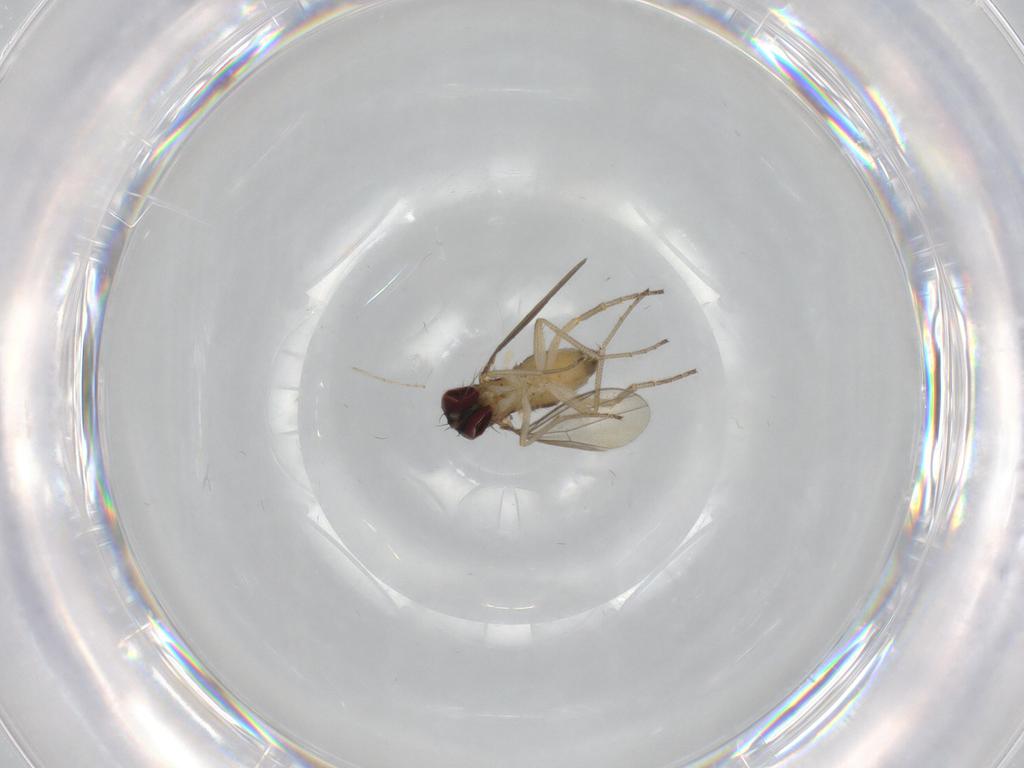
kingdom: Animalia
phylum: Arthropoda
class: Insecta
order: Diptera
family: Dolichopodidae
